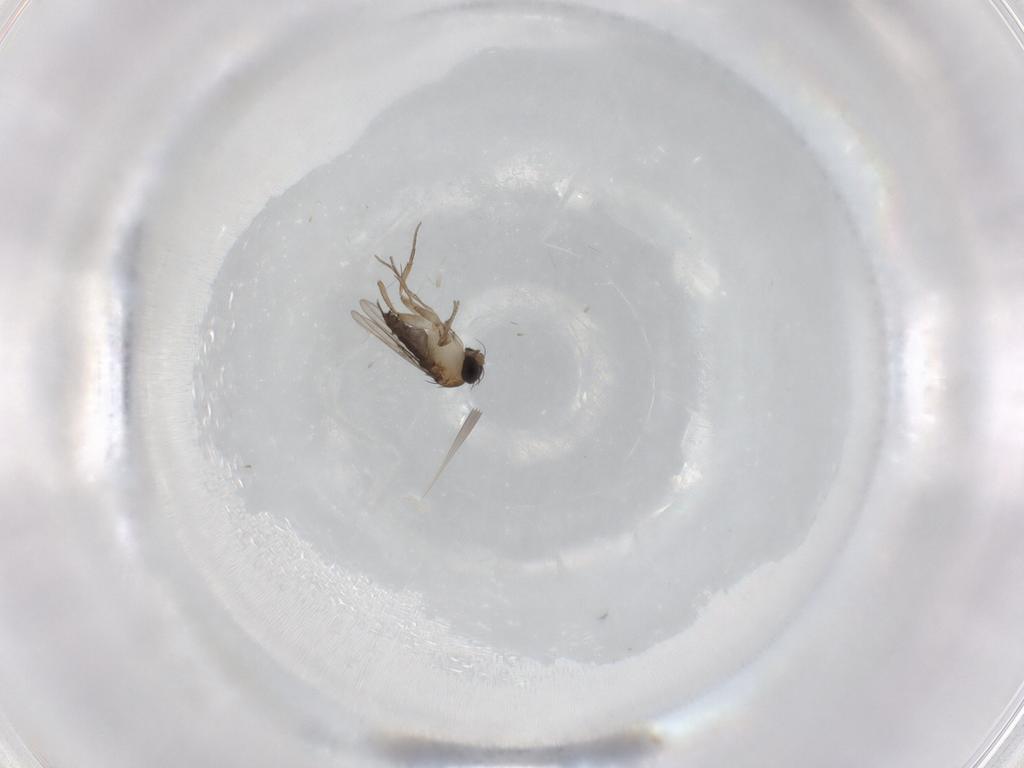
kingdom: Animalia
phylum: Arthropoda
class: Insecta
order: Diptera
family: Phoridae
